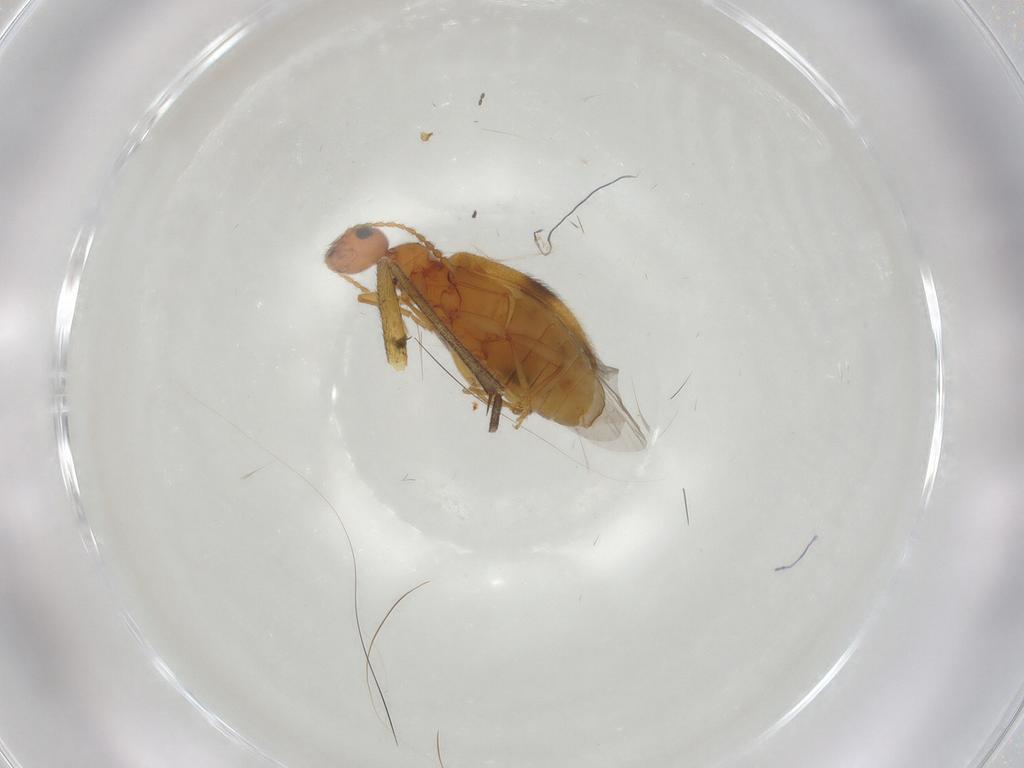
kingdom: Animalia
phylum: Arthropoda
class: Insecta
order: Coleoptera
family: Anthicidae
